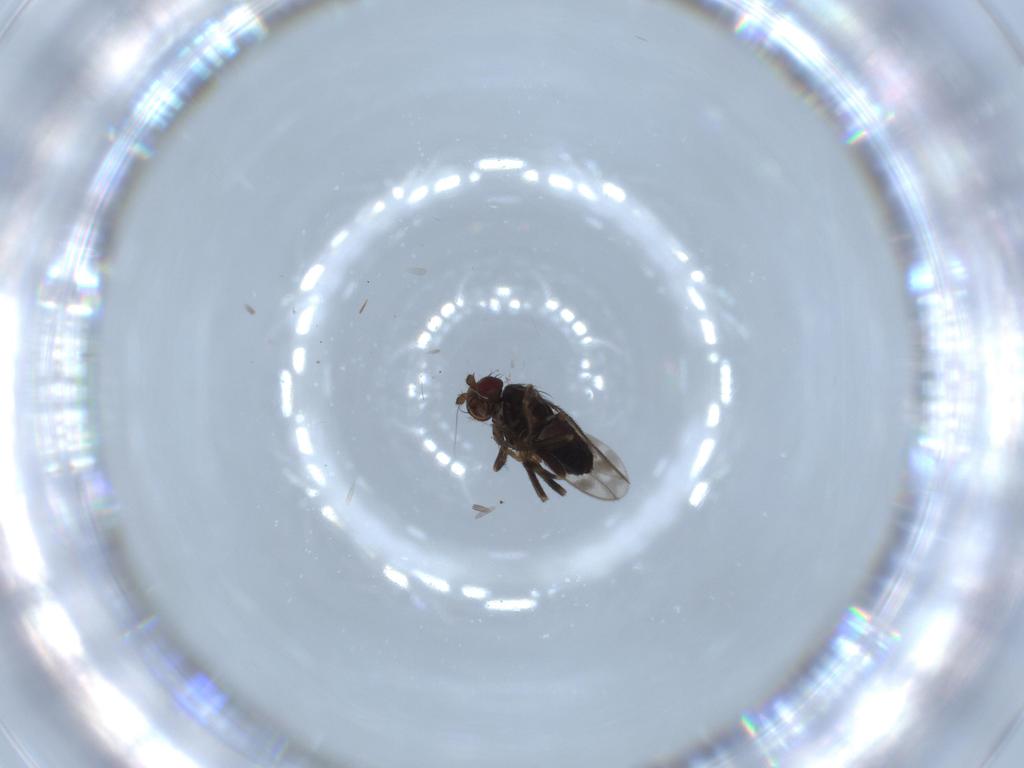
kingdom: Animalia
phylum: Arthropoda
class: Insecta
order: Diptera
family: Sphaeroceridae
